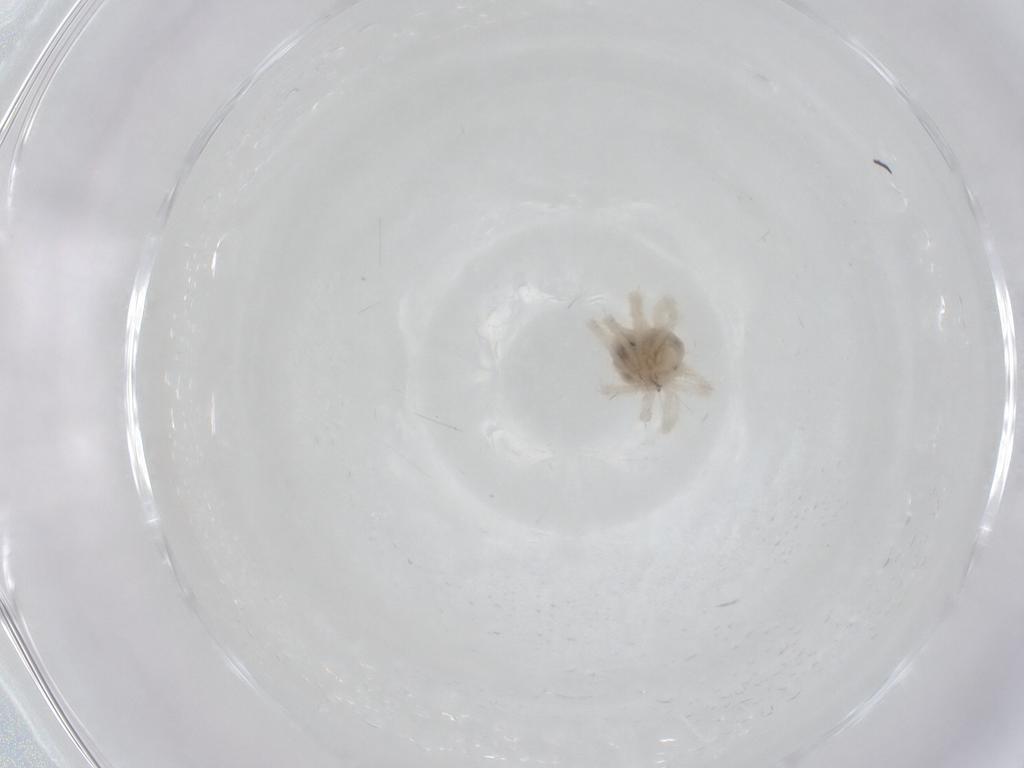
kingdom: Animalia
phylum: Arthropoda
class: Arachnida
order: Trombidiformes
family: Anystidae
